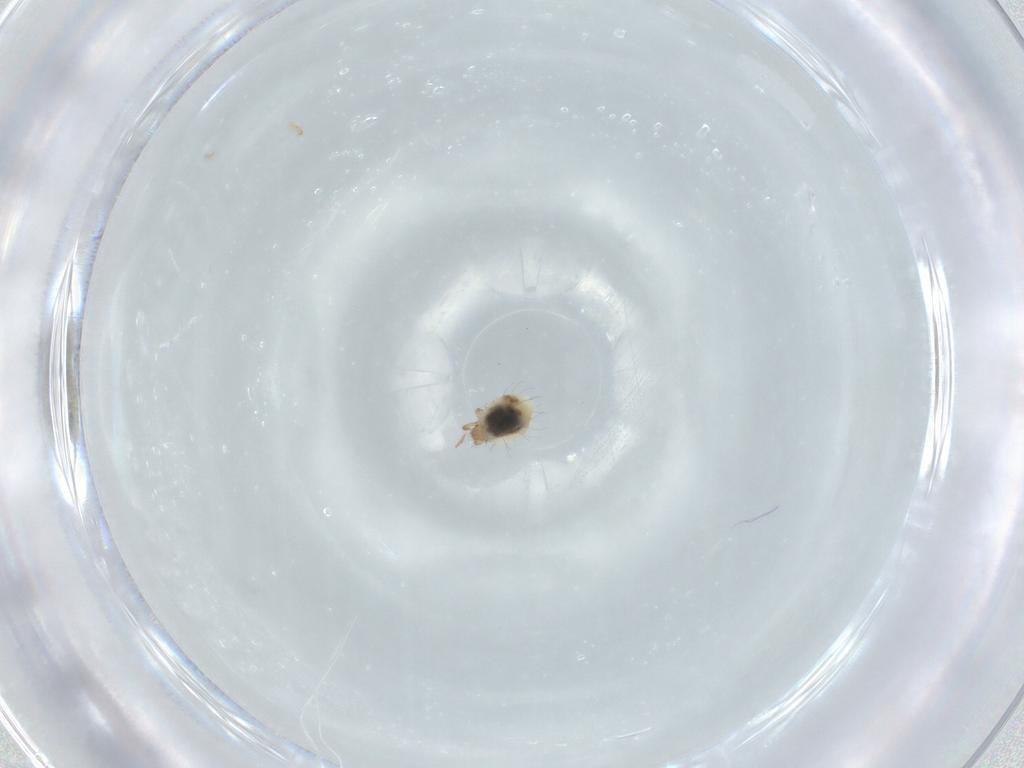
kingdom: Animalia
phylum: Arthropoda
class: Arachnida
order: Sarcoptiformes
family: Mochlozetidae
